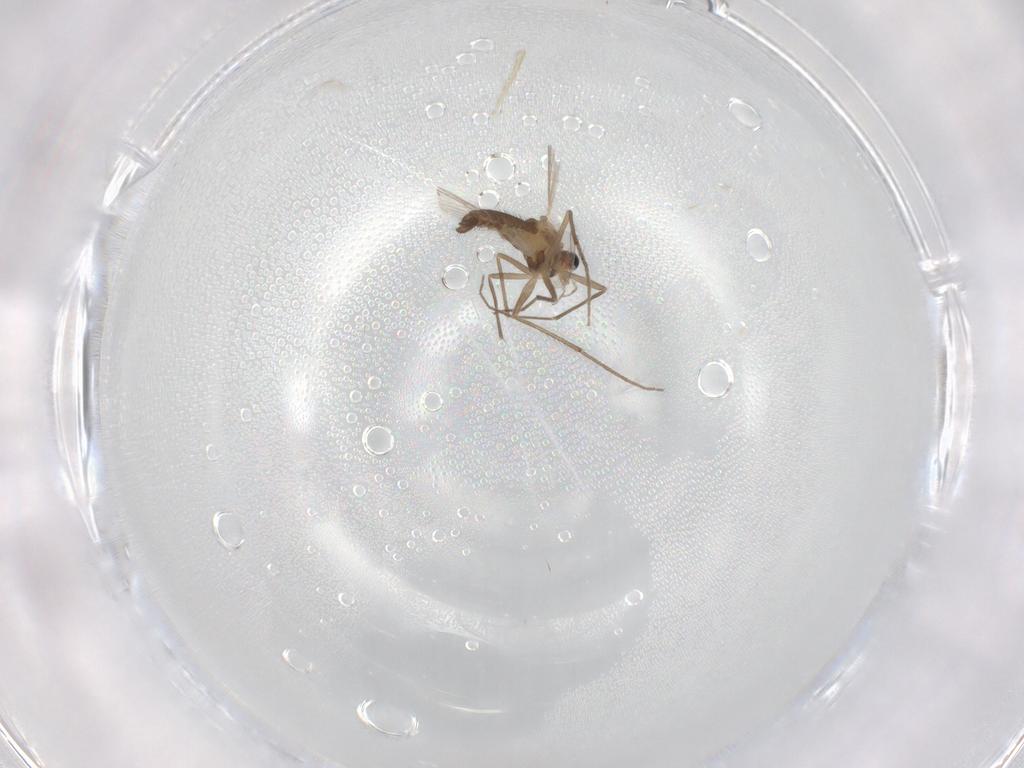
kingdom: Animalia
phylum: Arthropoda
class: Insecta
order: Diptera
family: Chironomidae
